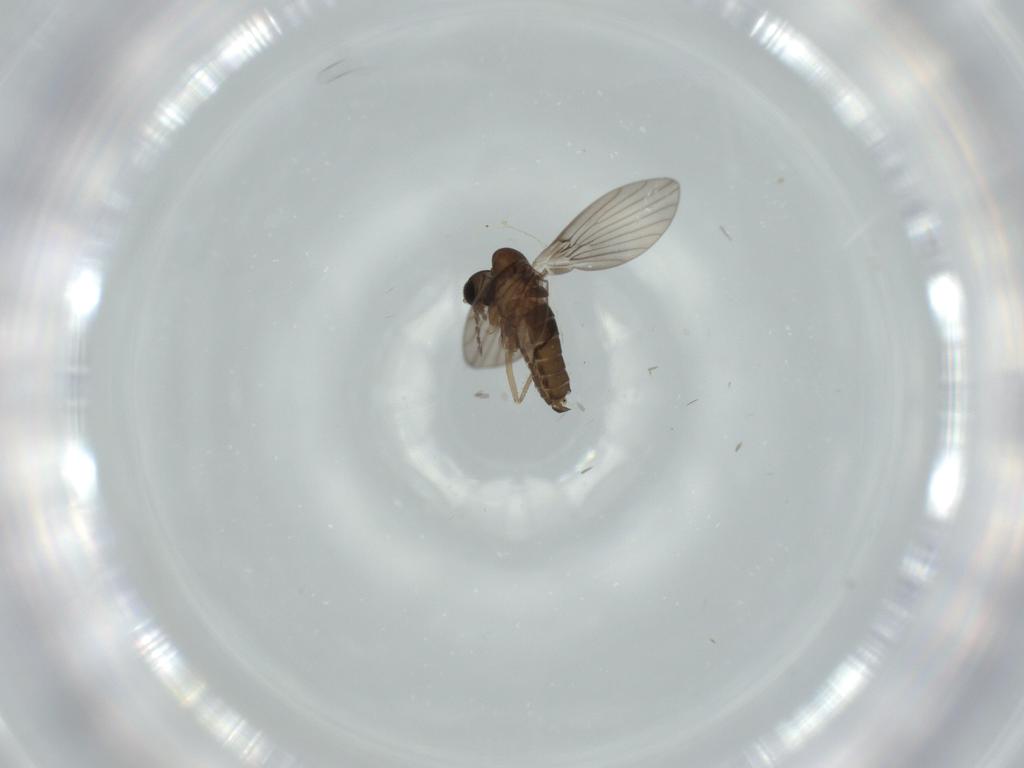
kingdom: Animalia
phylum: Arthropoda
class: Insecta
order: Diptera
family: Psychodidae
